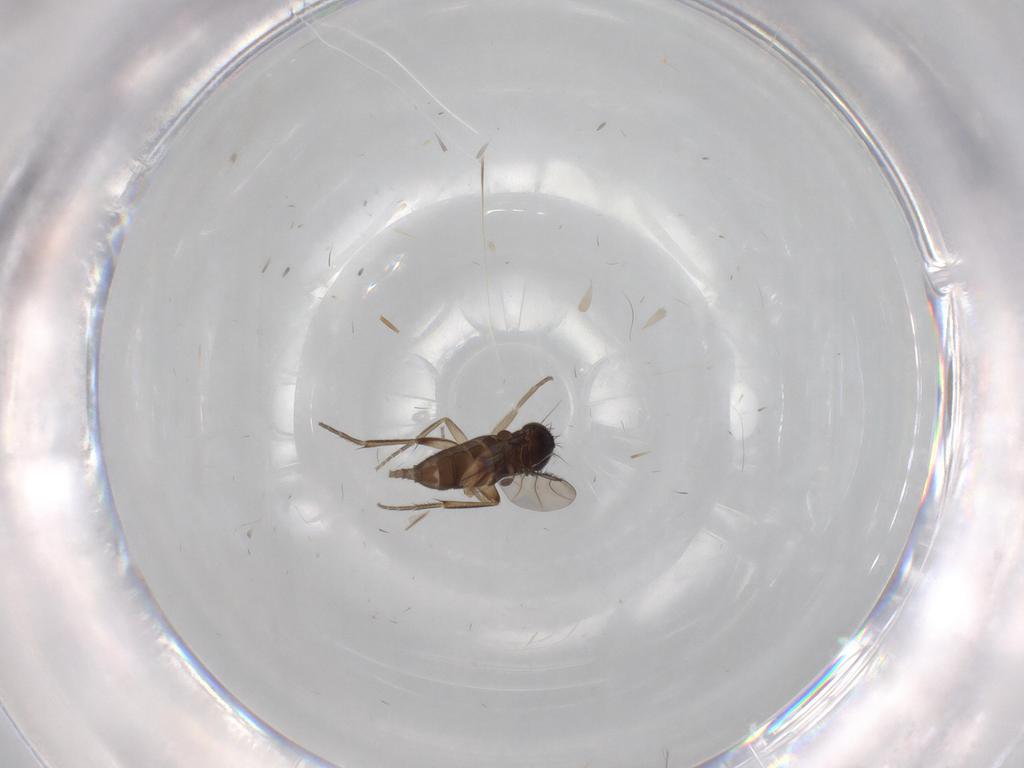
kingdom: Animalia
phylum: Arthropoda
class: Insecta
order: Diptera
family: Phoridae
